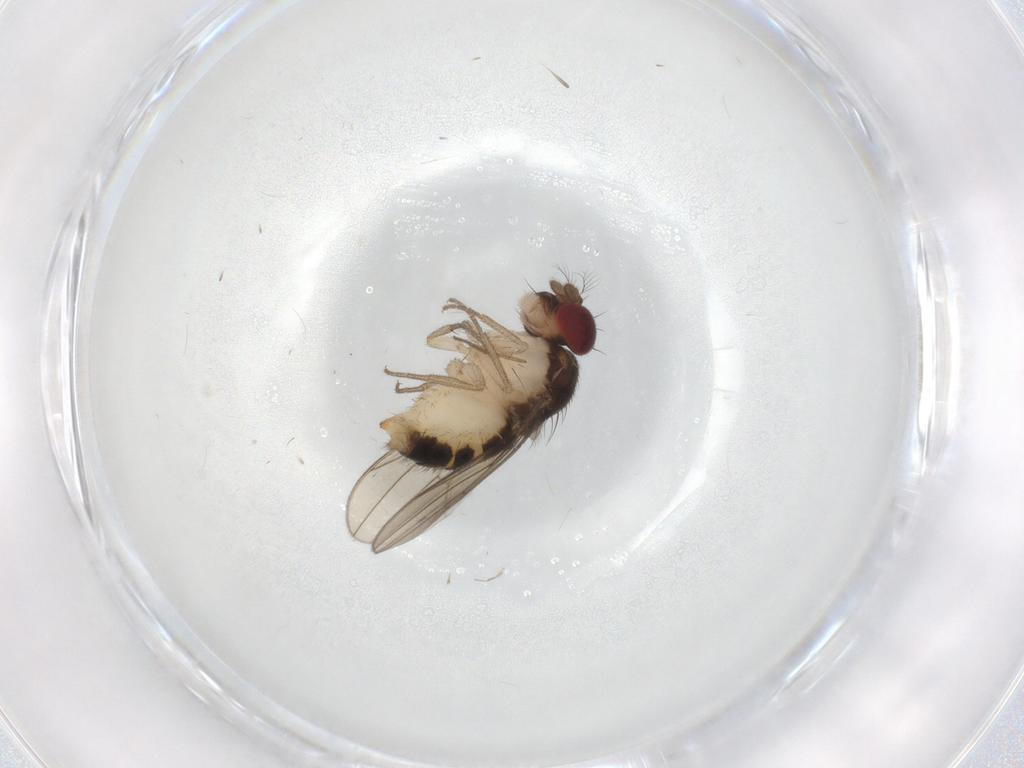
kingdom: Animalia
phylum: Arthropoda
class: Insecta
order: Diptera
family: Drosophilidae
